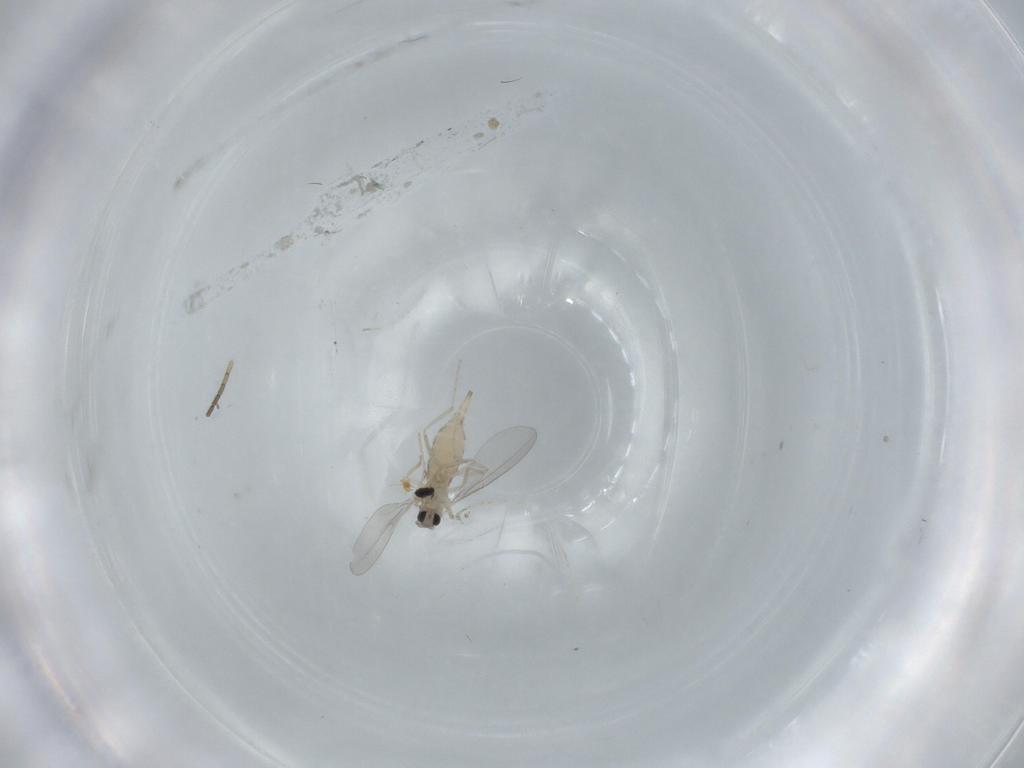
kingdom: Animalia
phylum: Arthropoda
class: Insecta
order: Diptera
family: Cecidomyiidae
